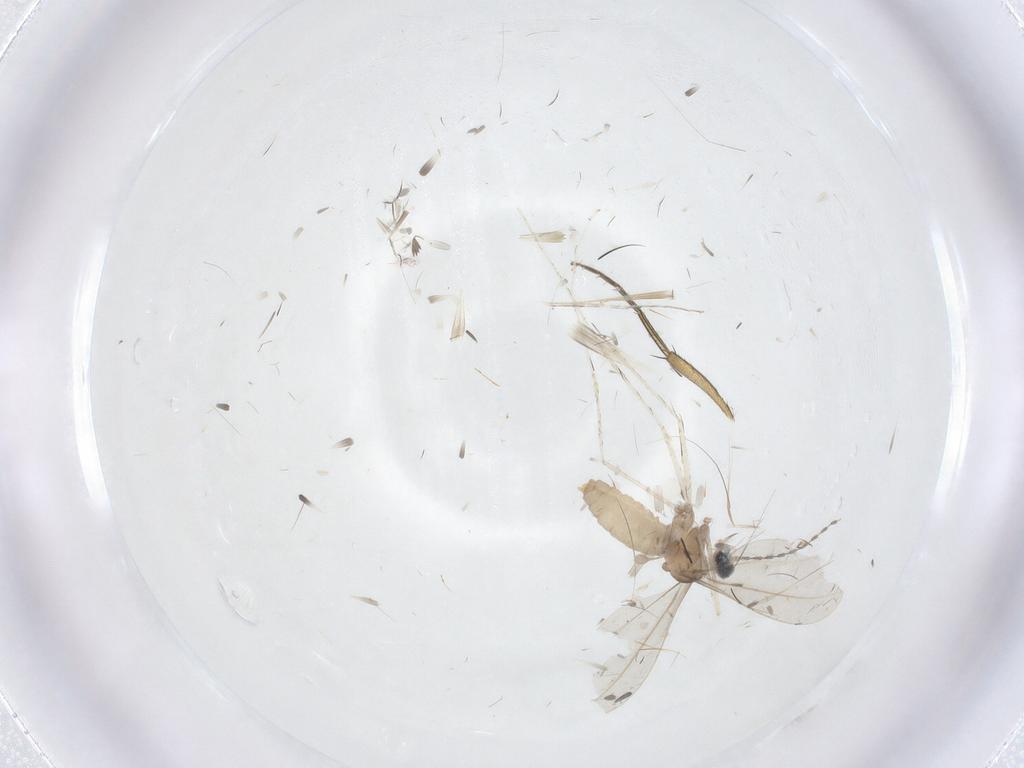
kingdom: Animalia
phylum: Arthropoda
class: Insecta
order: Diptera
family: Cecidomyiidae
